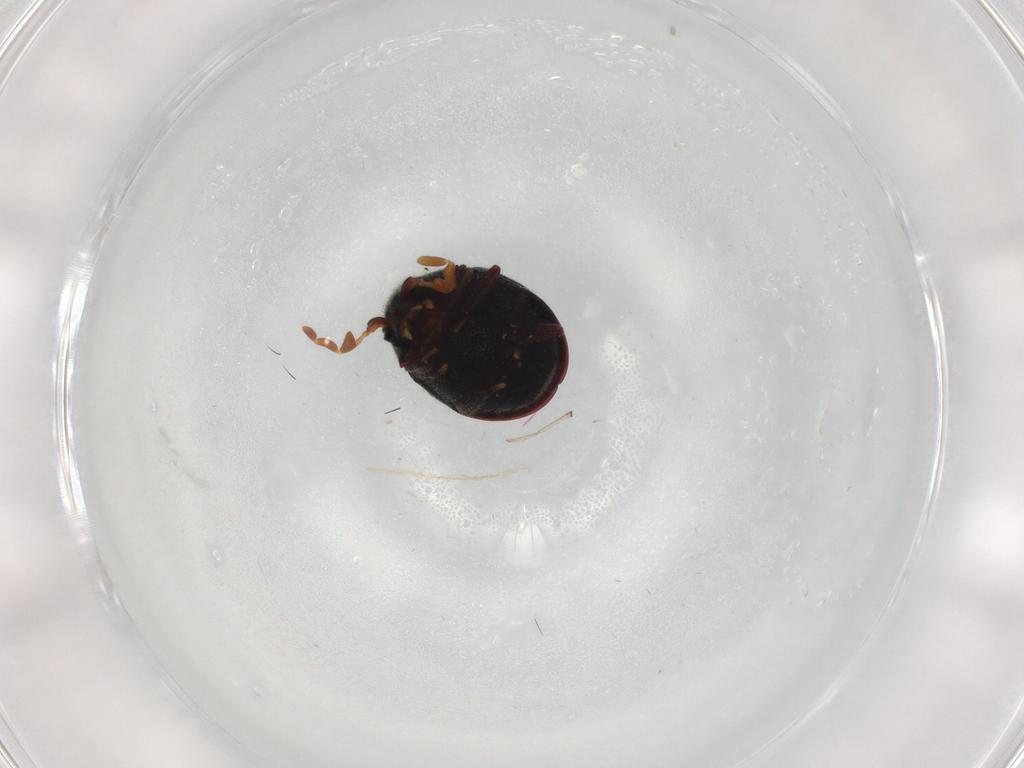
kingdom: Animalia
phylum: Arthropoda
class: Insecta
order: Coleoptera
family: Ptinidae
